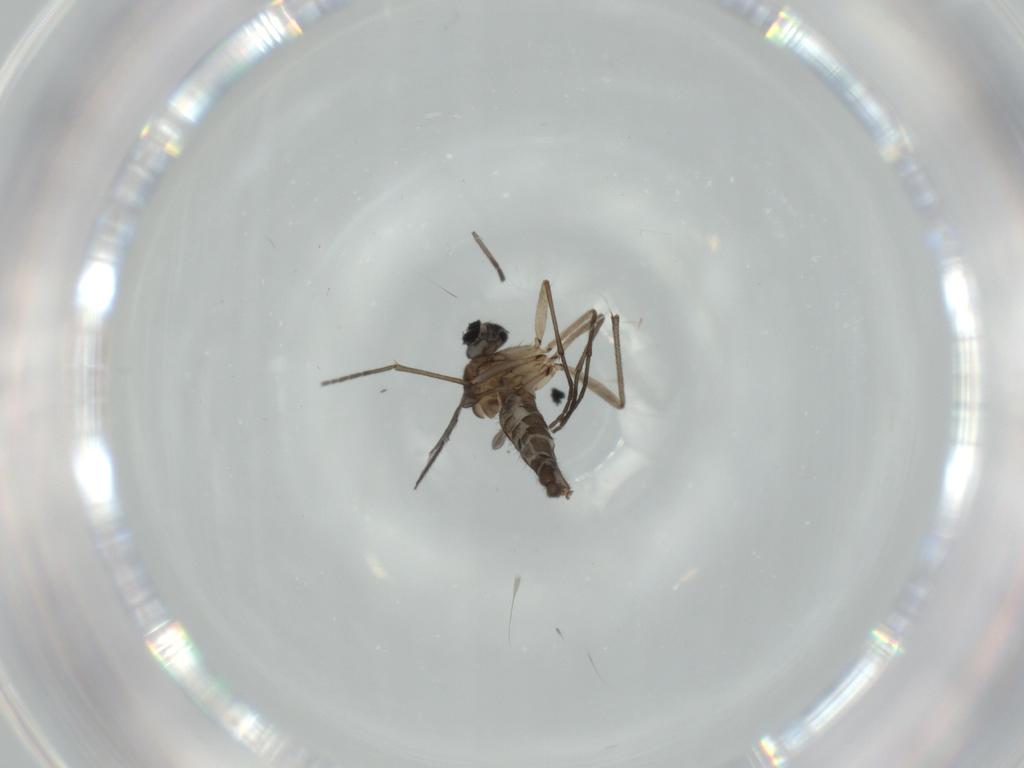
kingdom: Animalia
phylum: Arthropoda
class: Insecta
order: Diptera
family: Sciaridae
